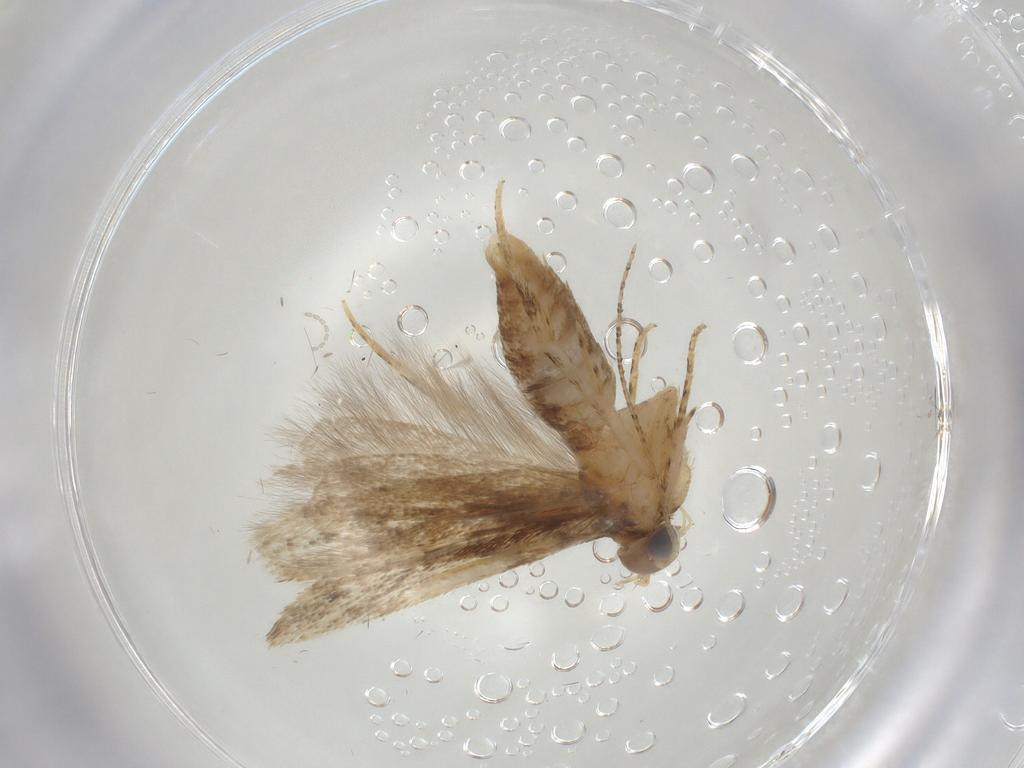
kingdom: Animalia
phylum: Arthropoda
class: Insecta
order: Lepidoptera
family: Gelechiidae
